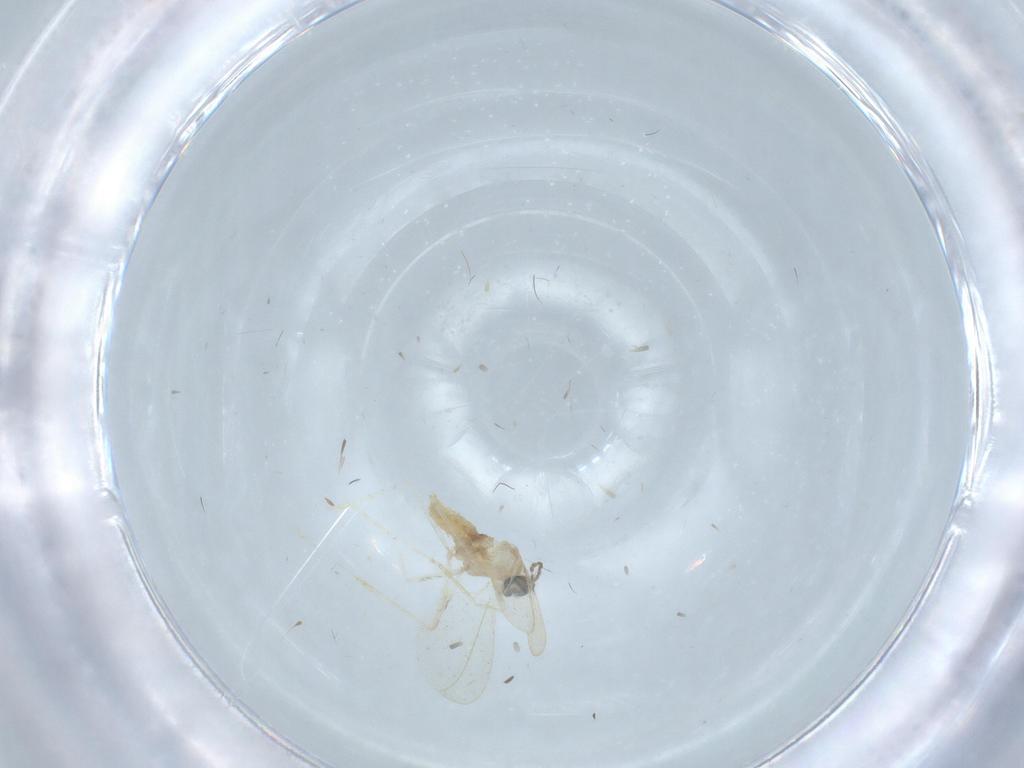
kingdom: Animalia
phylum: Arthropoda
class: Insecta
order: Diptera
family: Cecidomyiidae
